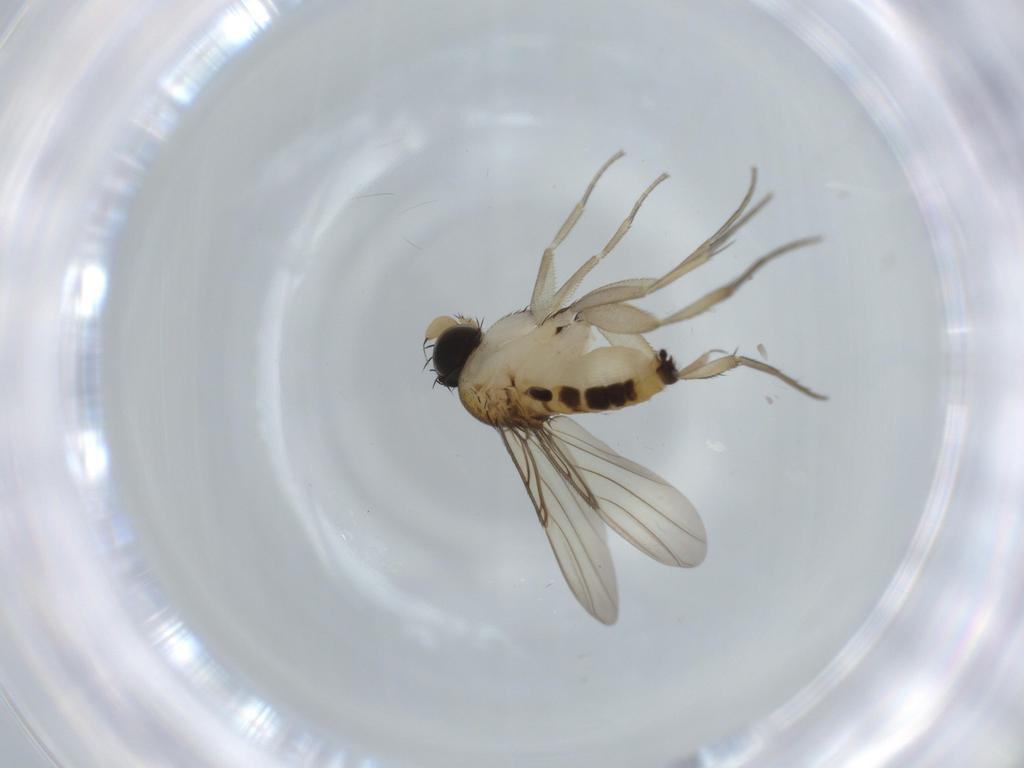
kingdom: Animalia
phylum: Arthropoda
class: Insecta
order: Diptera
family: Phoridae
